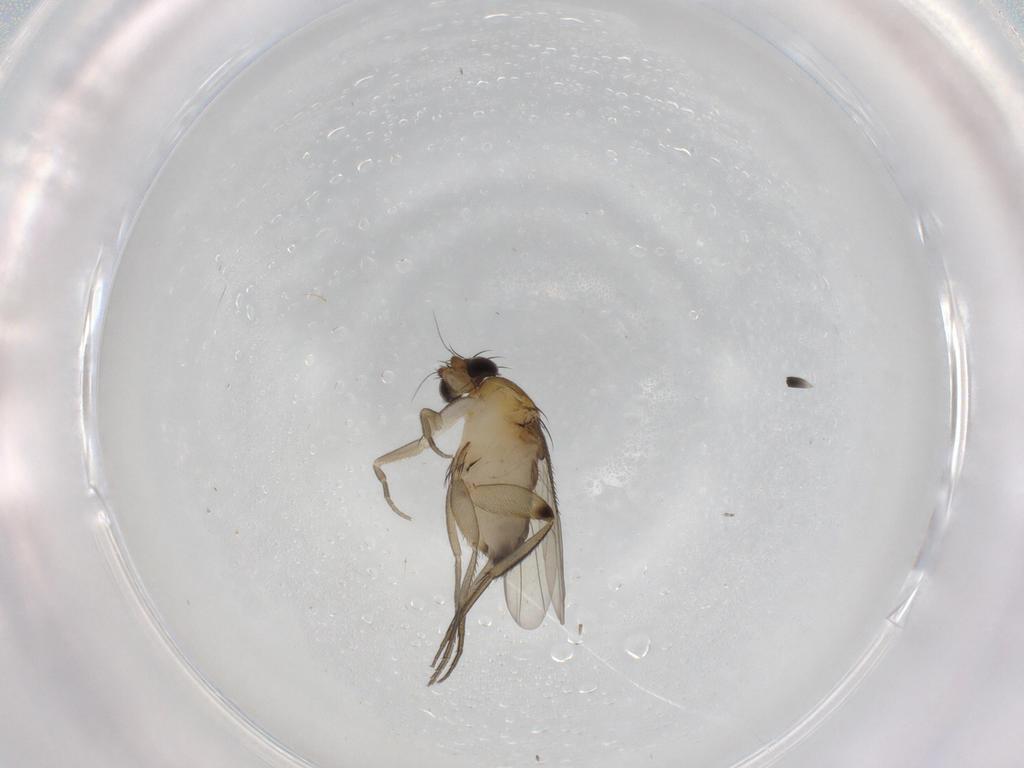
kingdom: Animalia
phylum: Arthropoda
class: Insecta
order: Diptera
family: Phoridae
